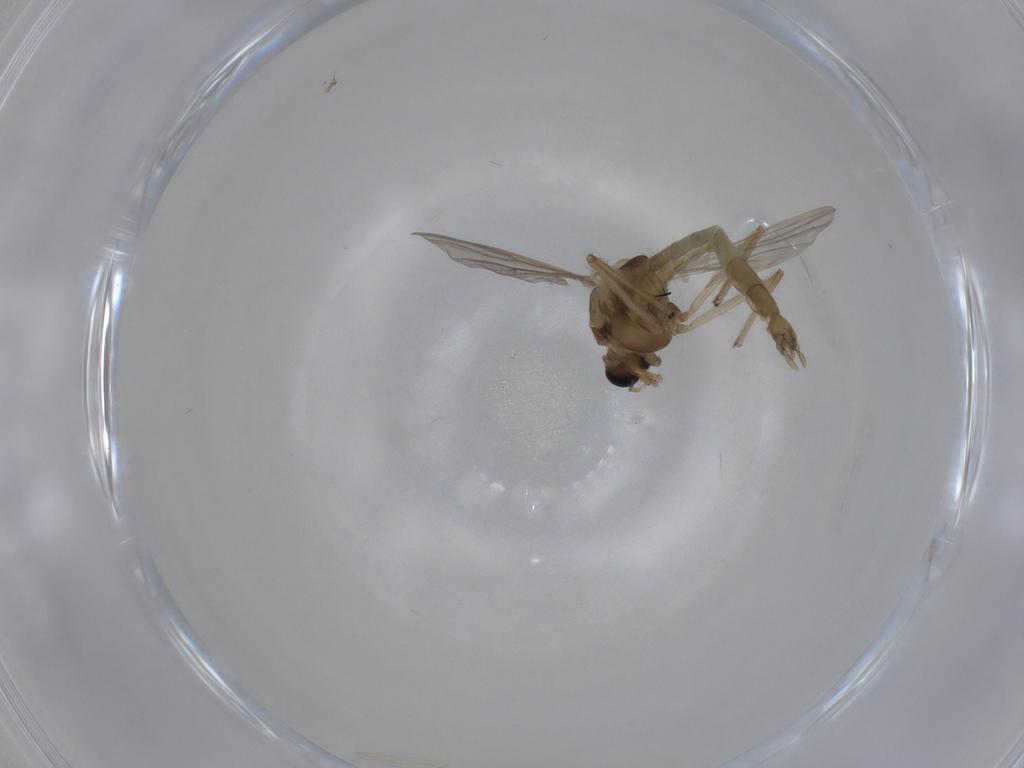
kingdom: Animalia
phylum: Arthropoda
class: Insecta
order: Diptera
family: Chironomidae
